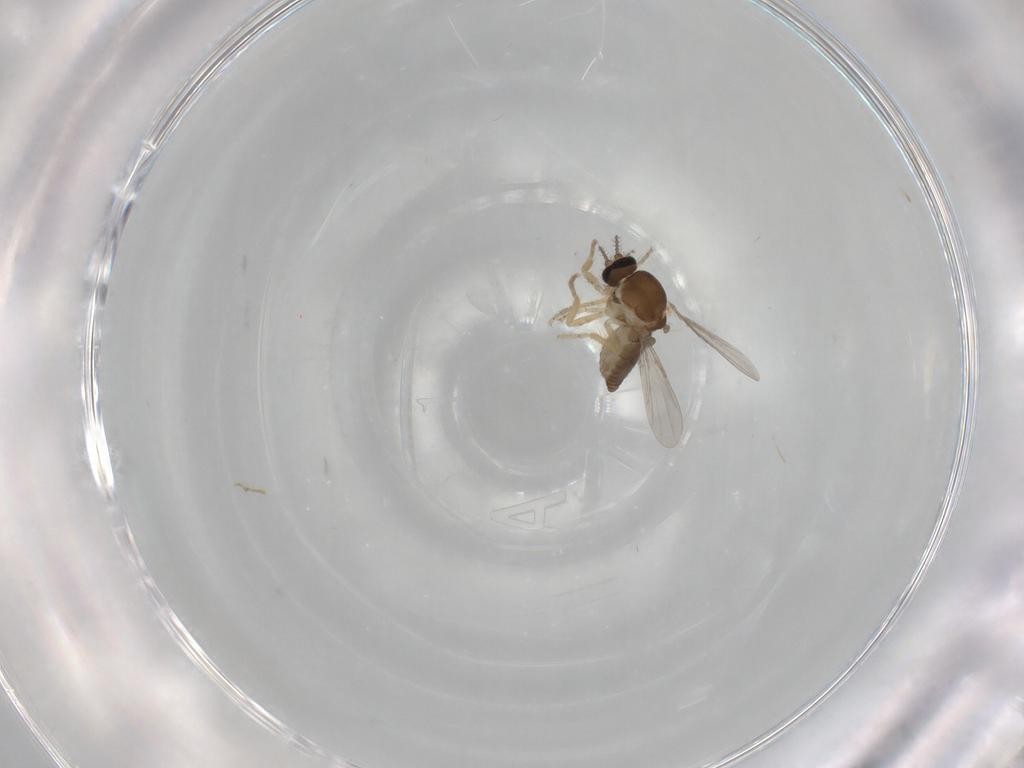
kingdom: Animalia
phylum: Arthropoda
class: Insecta
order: Diptera
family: Ceratopogonidae
